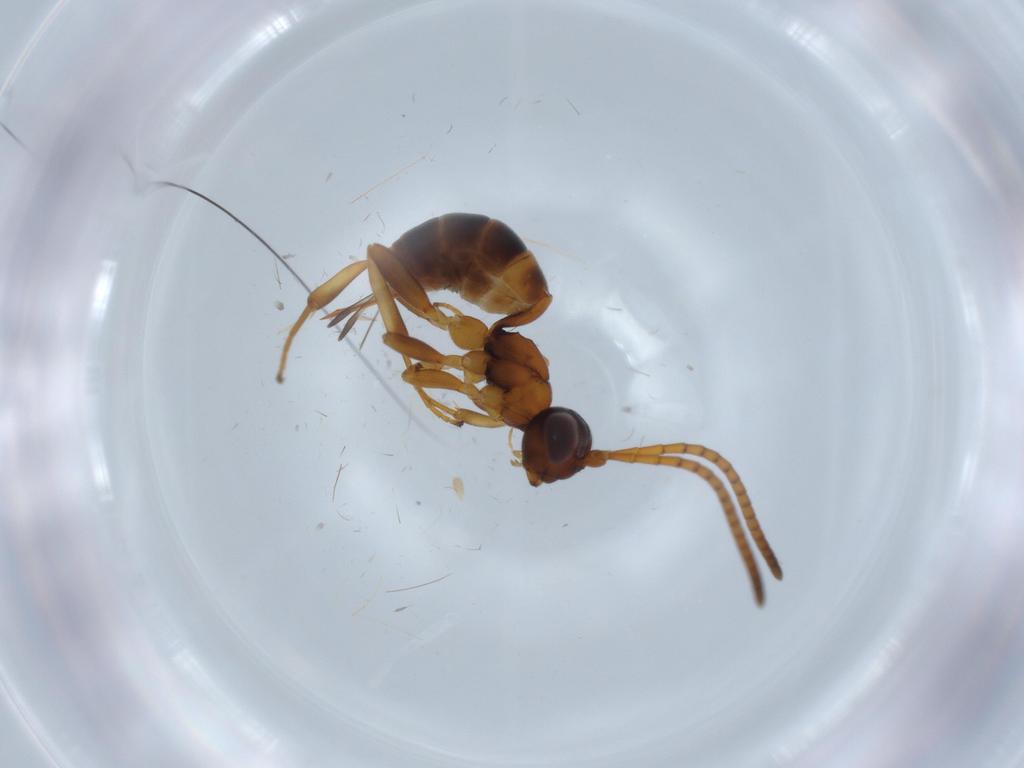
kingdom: Animalia
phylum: Arthropoda
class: Insecta
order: Hymenoptera
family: Ichneumonidae
